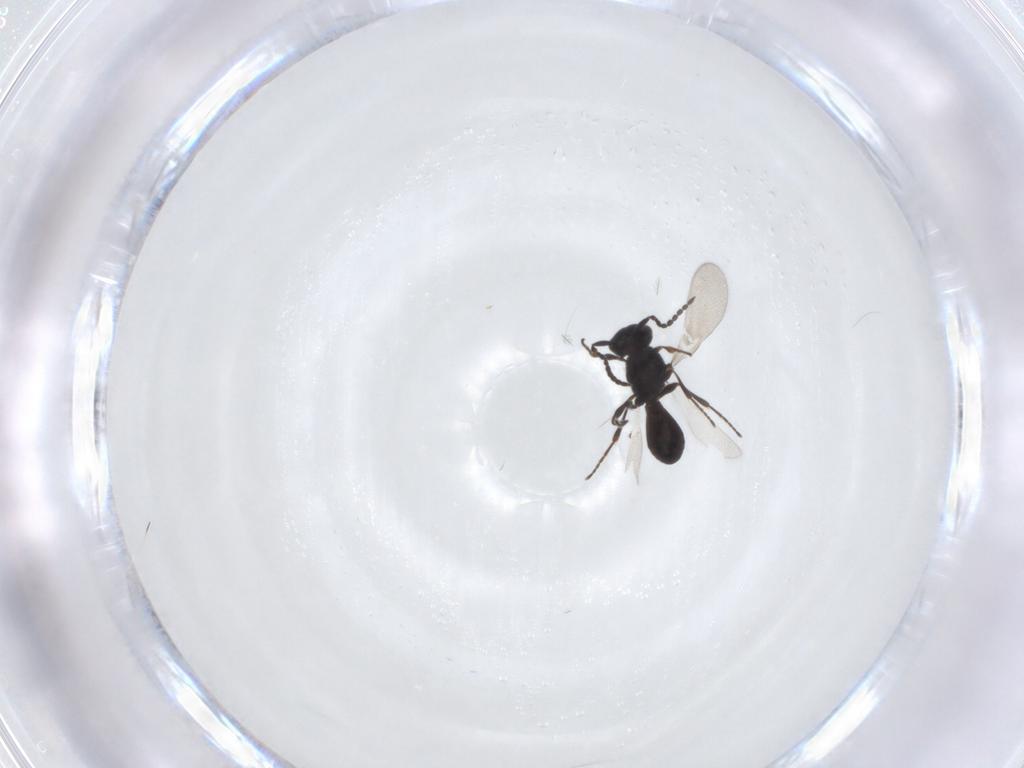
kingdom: Animalia
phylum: Arthropoda
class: Insecta
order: Hymenoptera
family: Platygastridae
